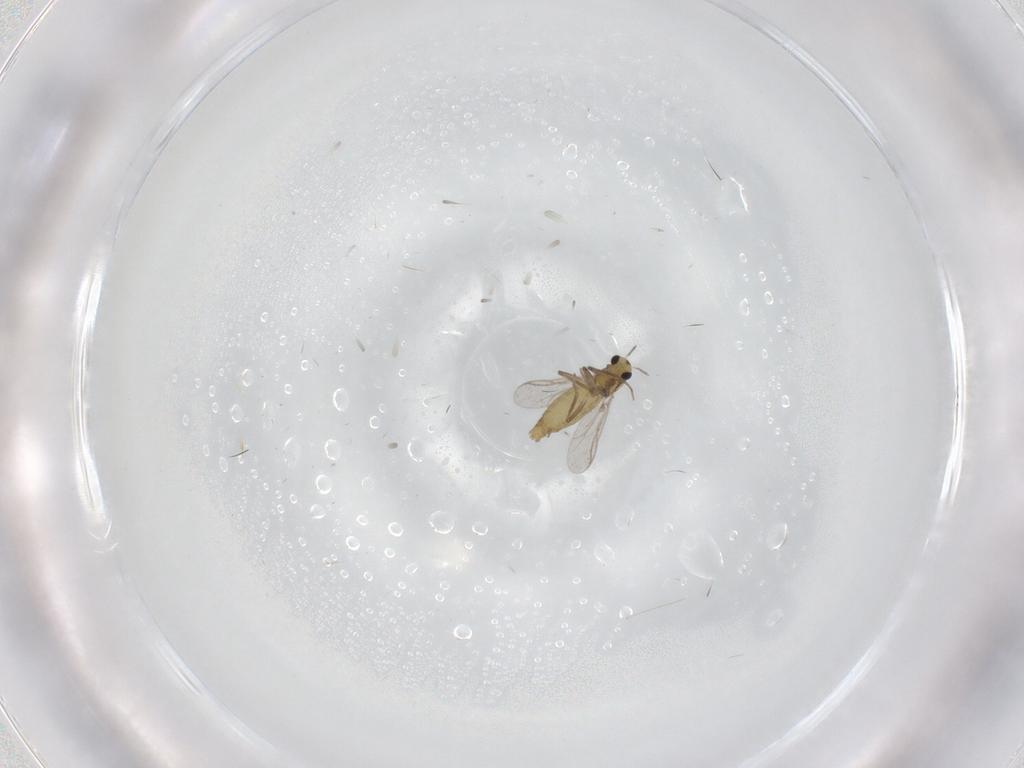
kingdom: Animalia
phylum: Arthropoda
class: Insecta
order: Diptera
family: Chironomidae
